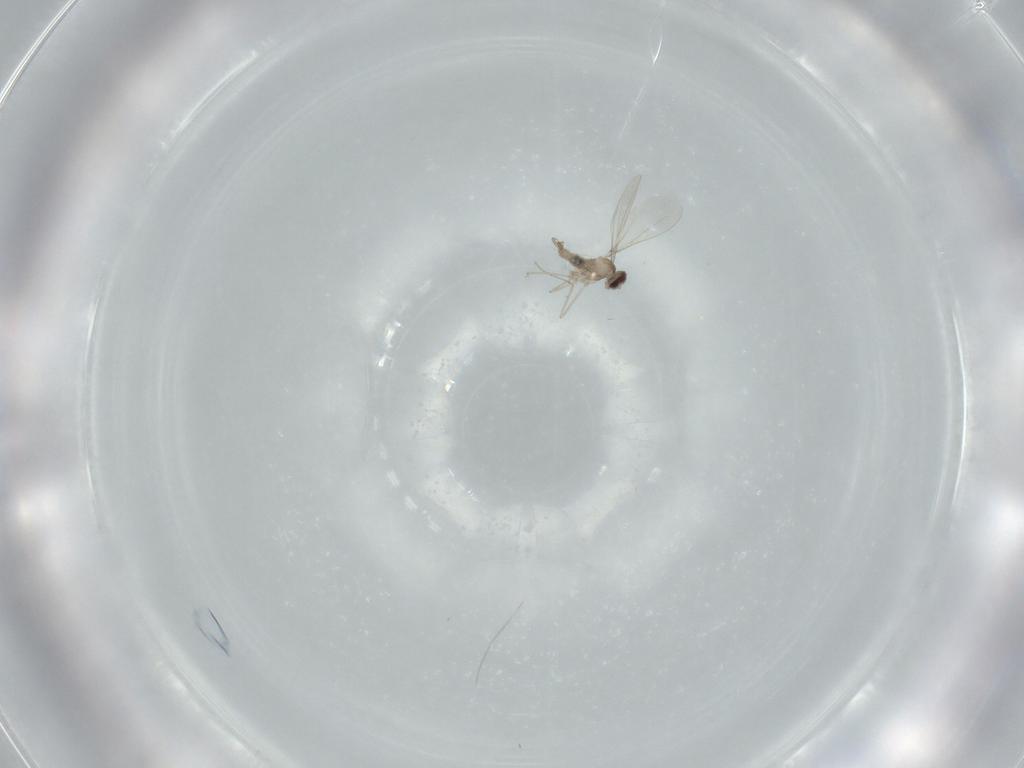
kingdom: Animalia
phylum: Arthropoda
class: Insecta
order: Diptera
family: Cecidomyiidae
